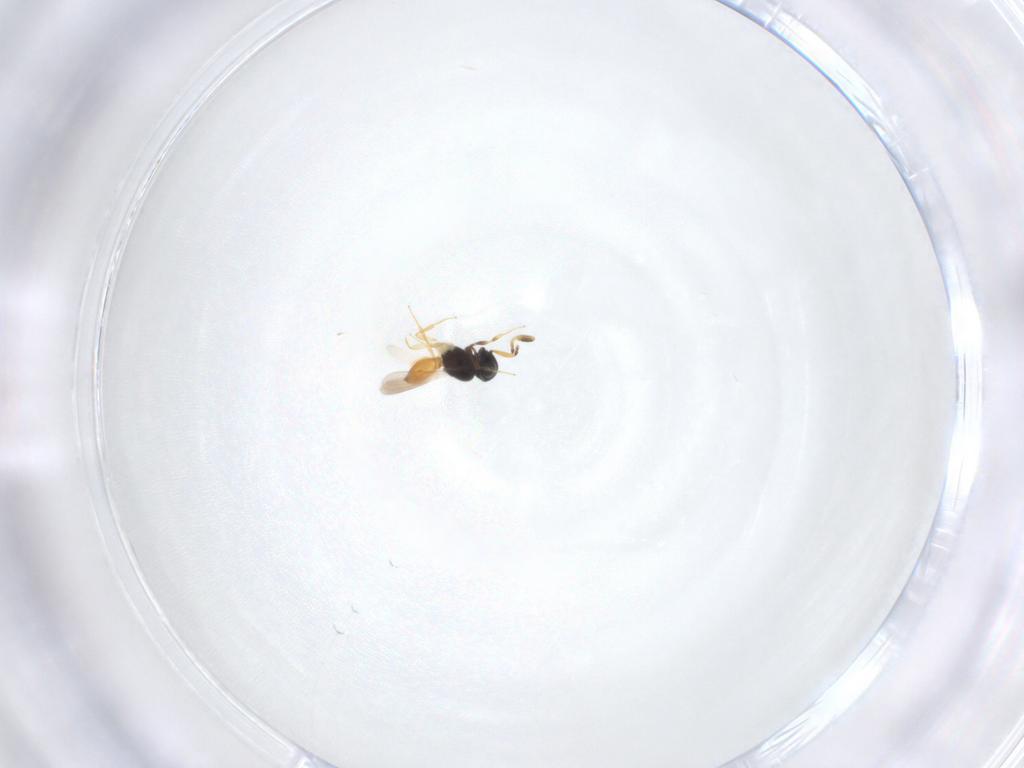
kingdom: Animalia
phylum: Arthropoda
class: Insecta
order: Hymenoptera
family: Scelionidae
